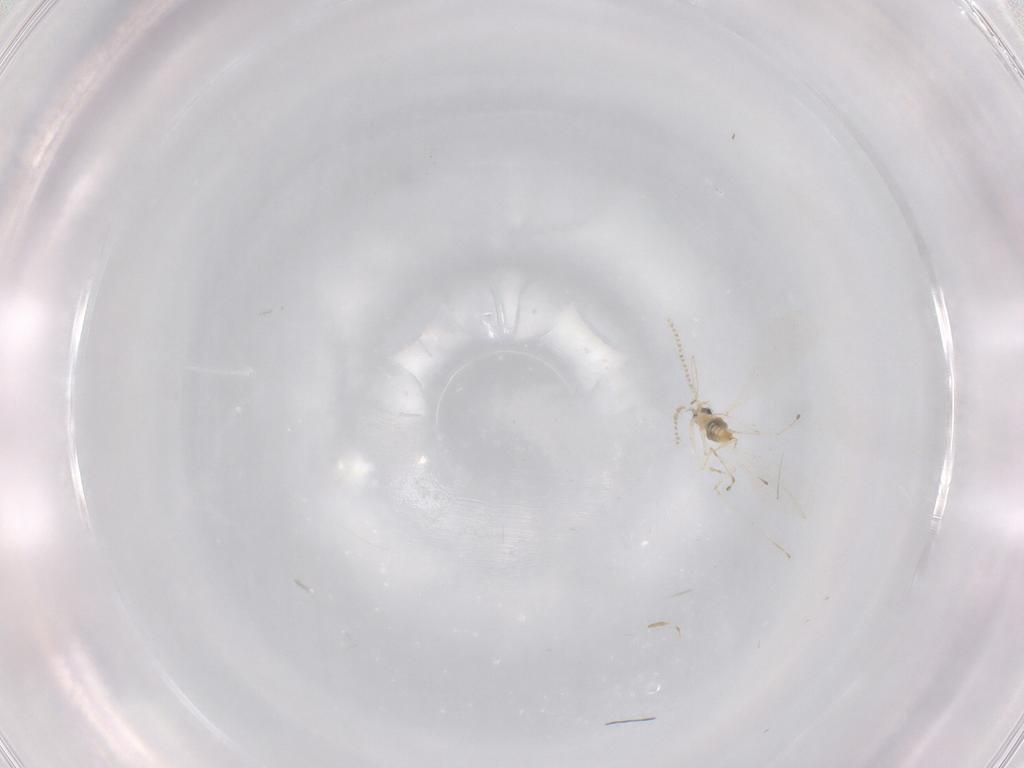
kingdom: Animalia
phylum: Arthropoda
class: Insecta
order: Diptera
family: Cecidomyiidae
